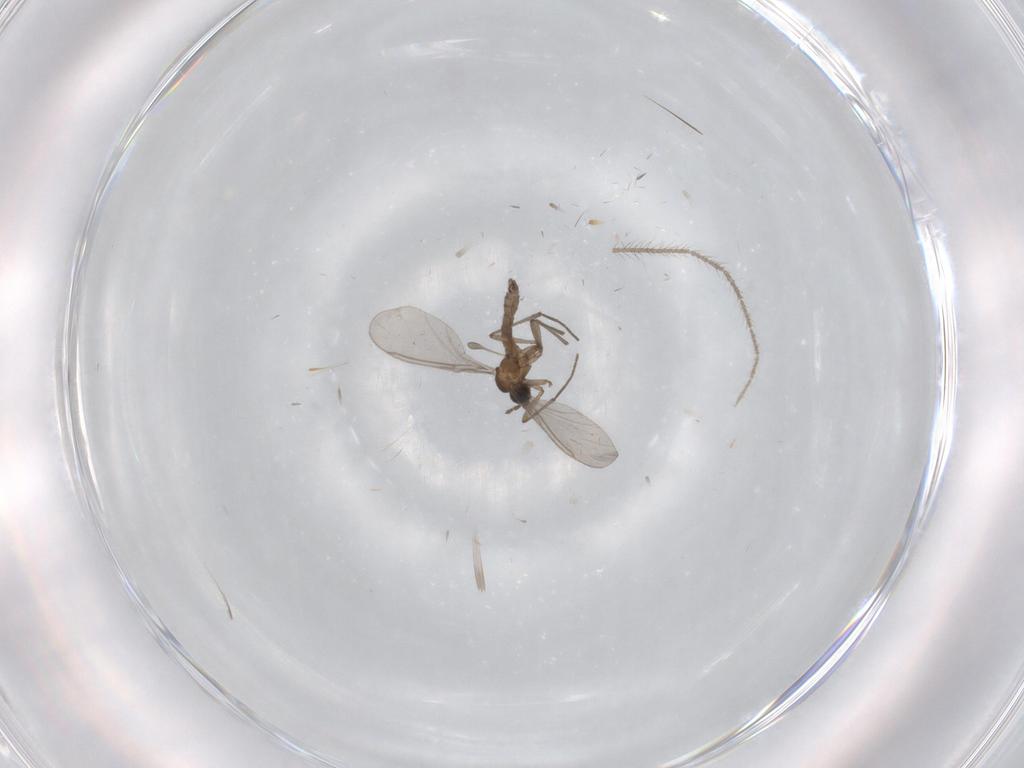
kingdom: Animalia
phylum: Arthropoda
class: Insecta
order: Diptera
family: Sciaridae
